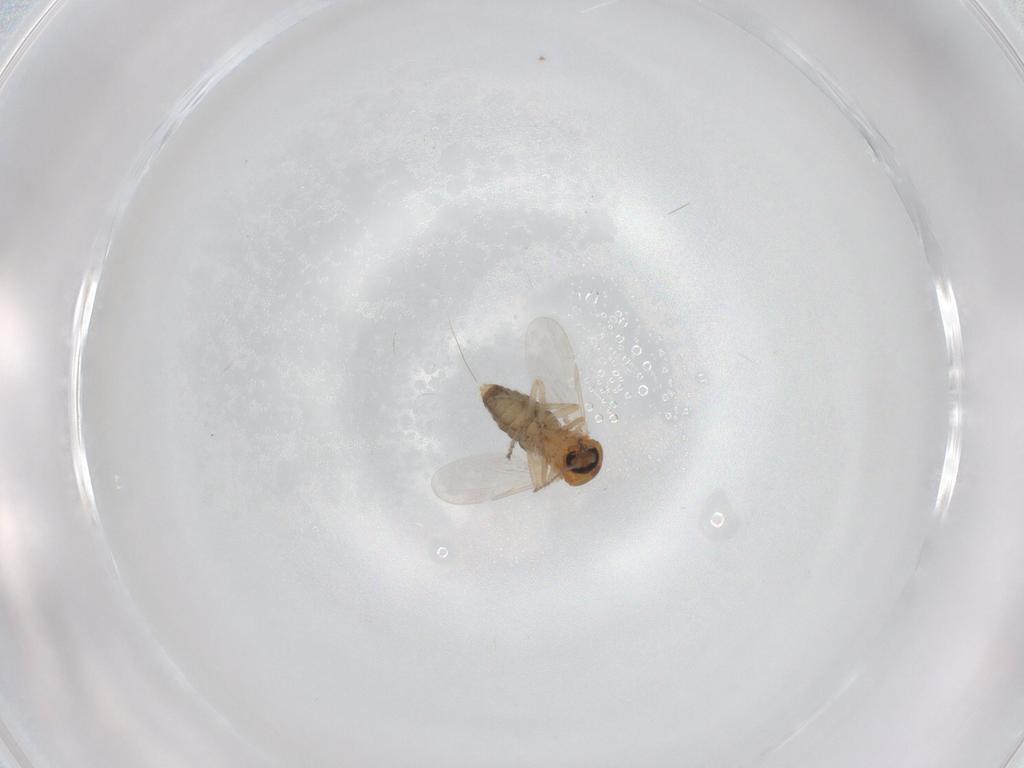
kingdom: Animalia
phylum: Arthropoda
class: Insecta
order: Diptera
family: Ceratopogonidae
